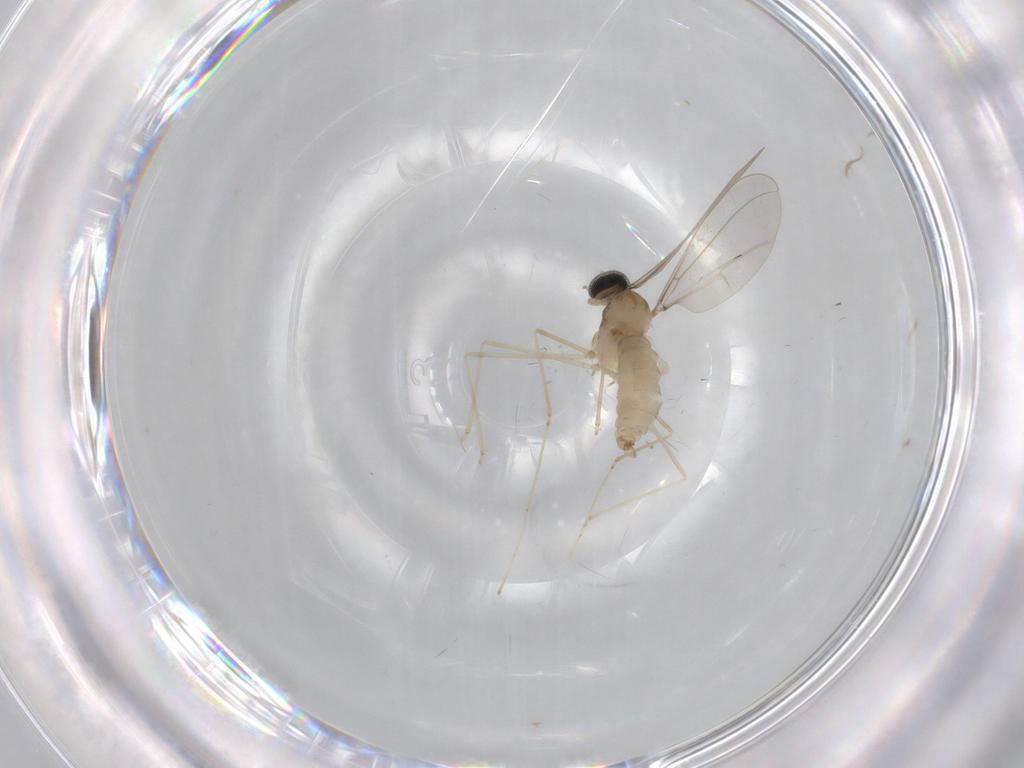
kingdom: Animalia
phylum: Arthropoda
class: Insecta
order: Diptera
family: Cecidomyiidae
